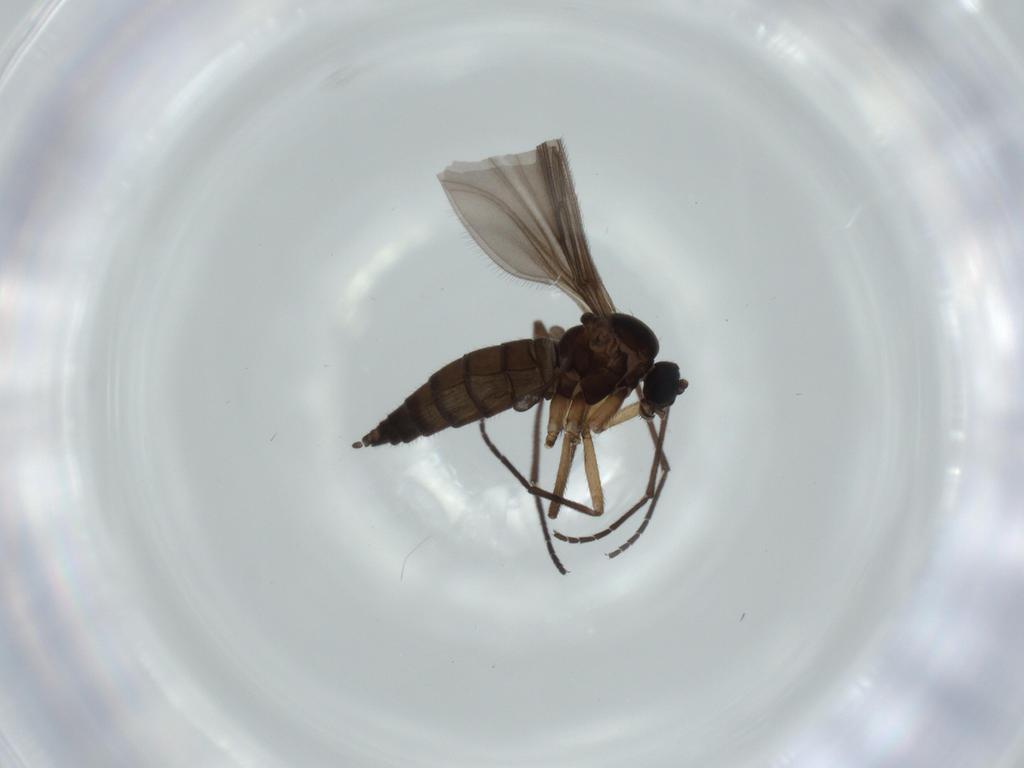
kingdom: Animalia
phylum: Arthropoda
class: Insecta
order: Diptera
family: Sciaridae
